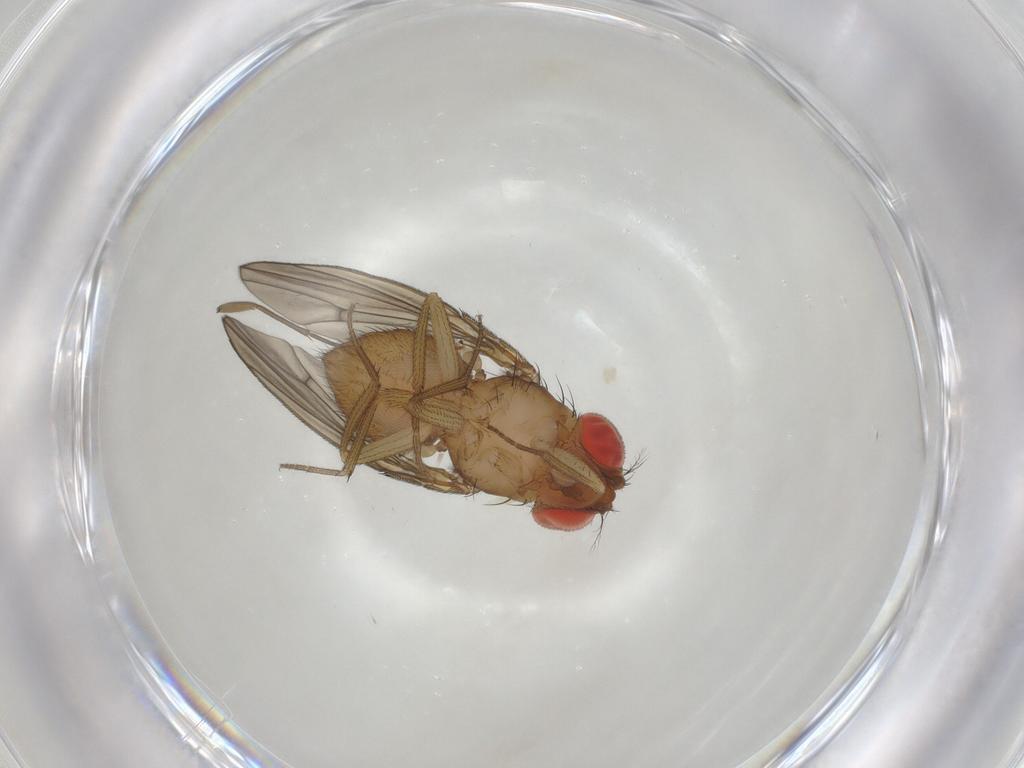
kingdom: Animalia
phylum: Arthropoda
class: Insecta
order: Diptera
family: Drosophilidae
